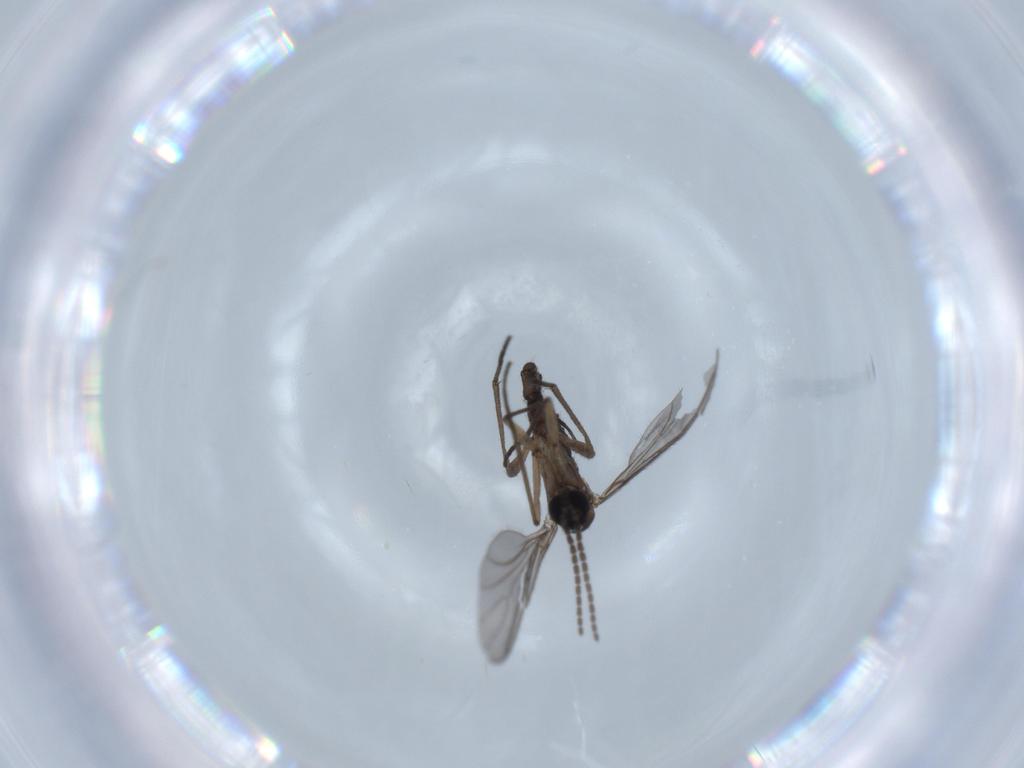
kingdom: Animalia
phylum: Arthropoda
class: Insecta
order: Diptera
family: Sciaridae
